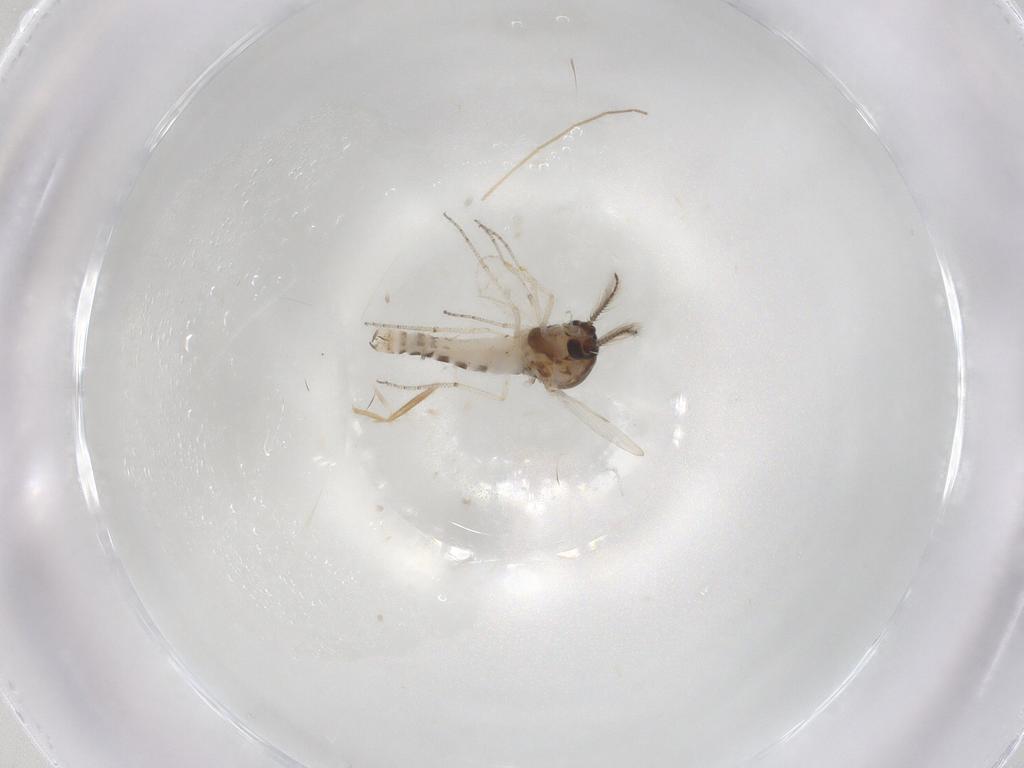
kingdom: Animalia
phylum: Arthropoda
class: Insecta
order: Diptera
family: Ceratopogonidae
